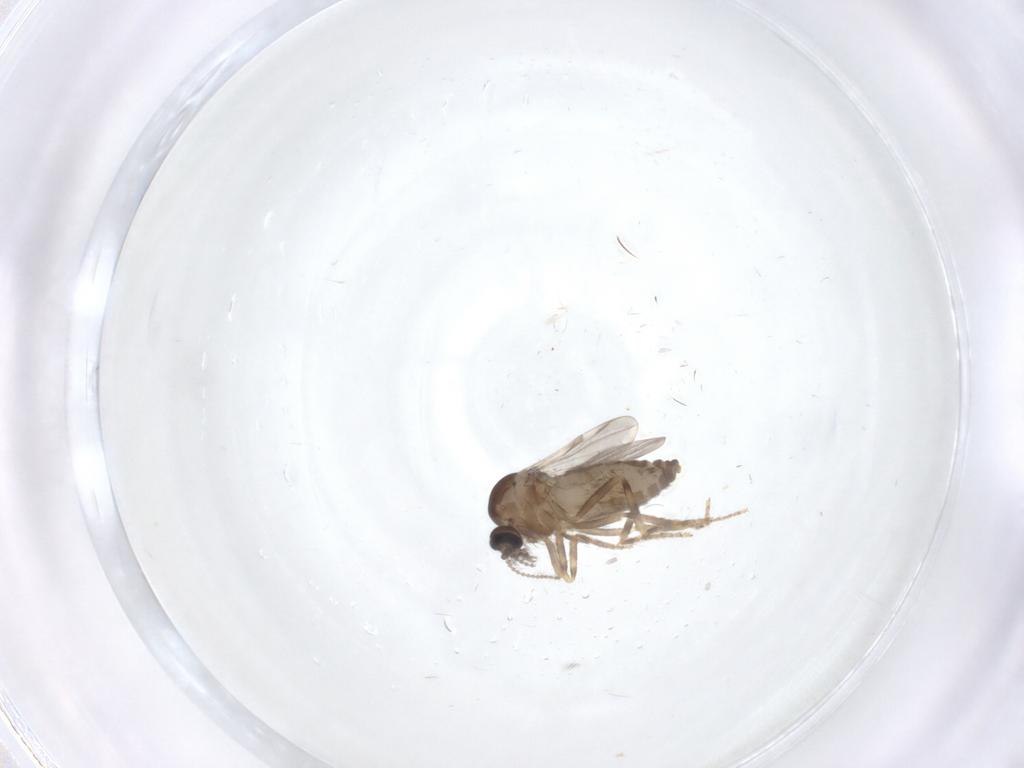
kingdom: Animalia
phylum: Arthropoda
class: Insecta
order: Diptera
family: Ceratopogonidae
